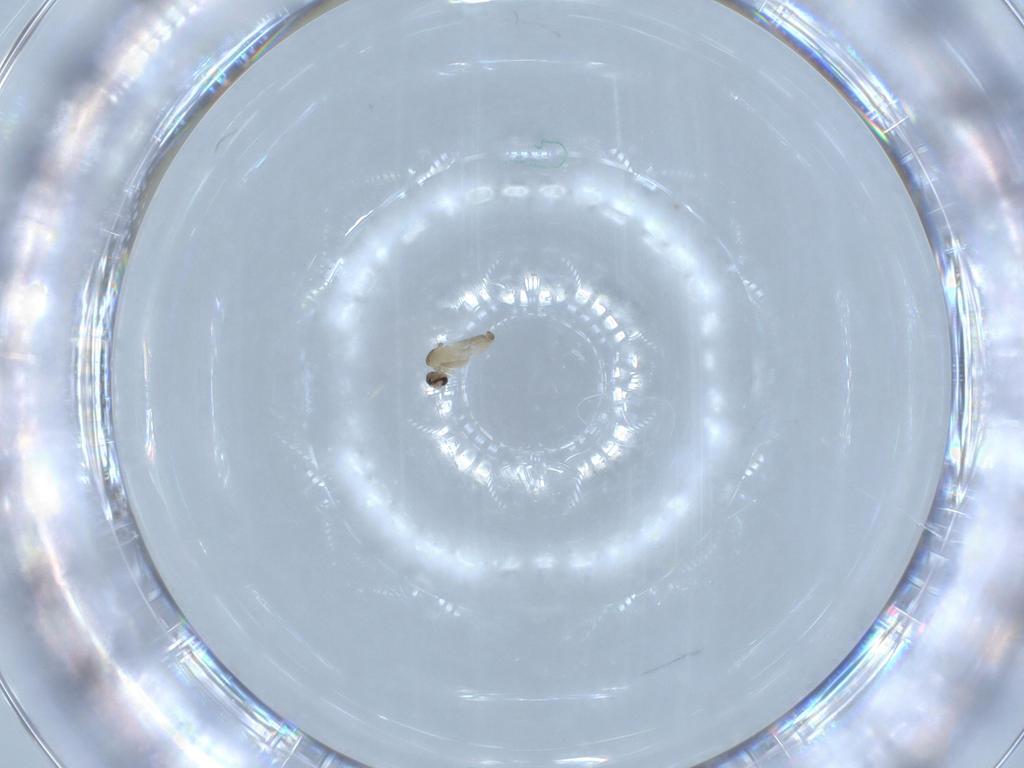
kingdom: Animalia
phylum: Arthropoda
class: Insecta
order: Diptera
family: Cecidomyiidae
